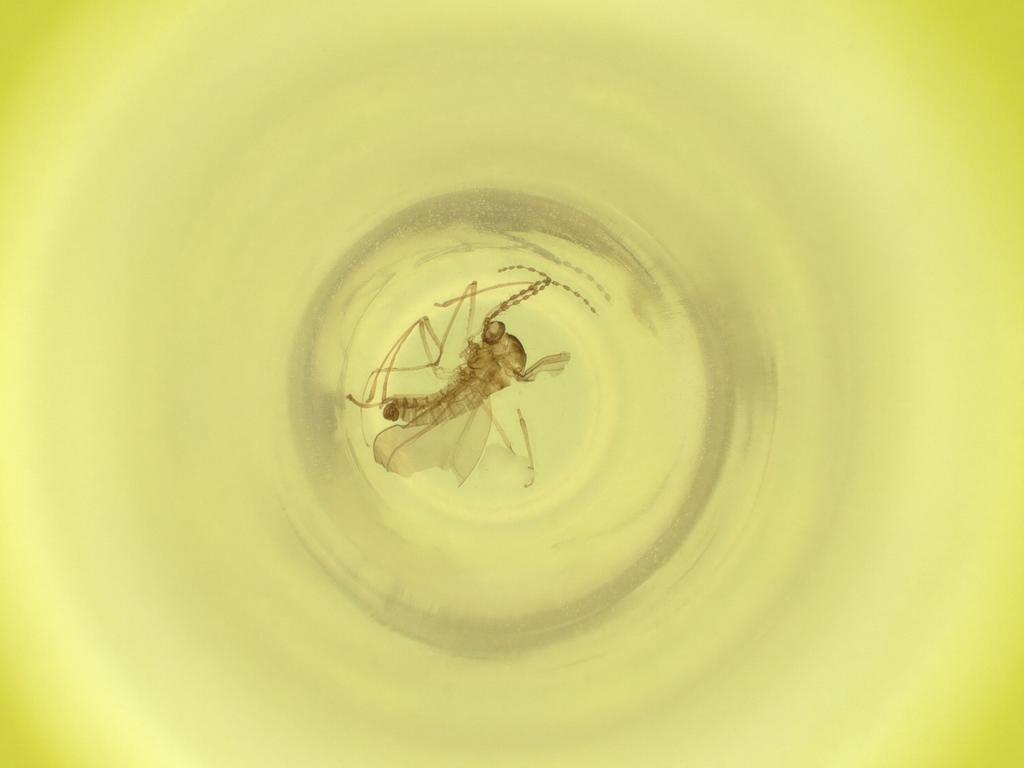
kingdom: Animalia
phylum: Arthropoda
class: Insecta
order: Diptera
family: Cecidomyiidae
